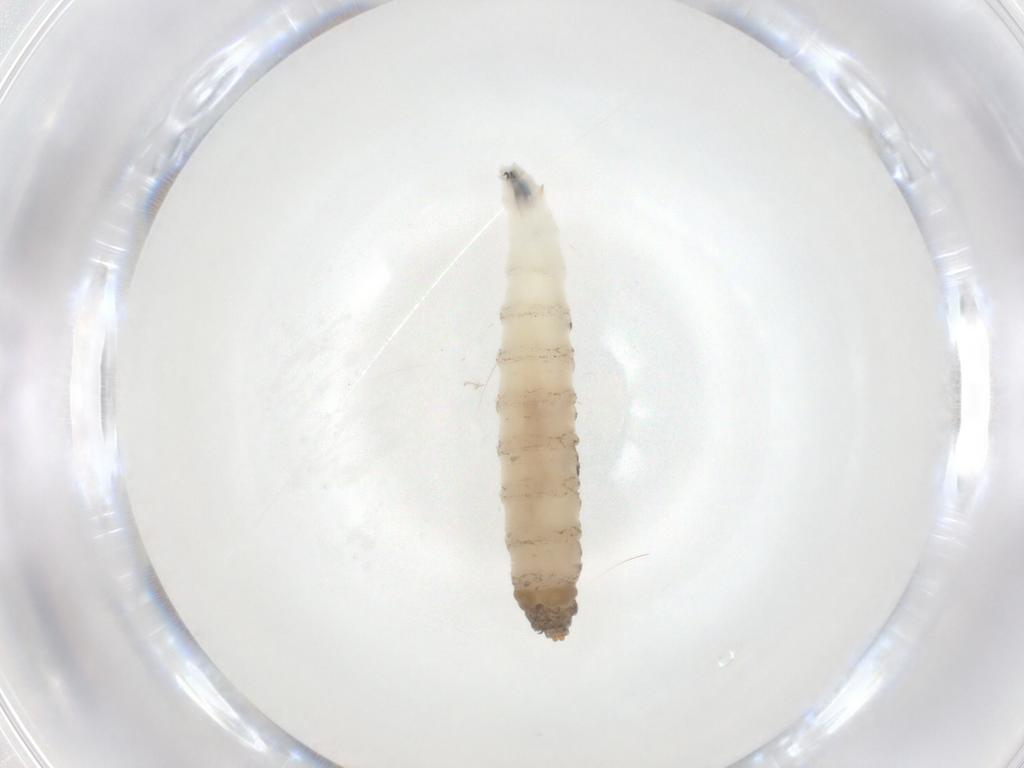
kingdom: Animalia
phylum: Arthropoda
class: Insecta
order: Diptera
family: Drosophilidae
